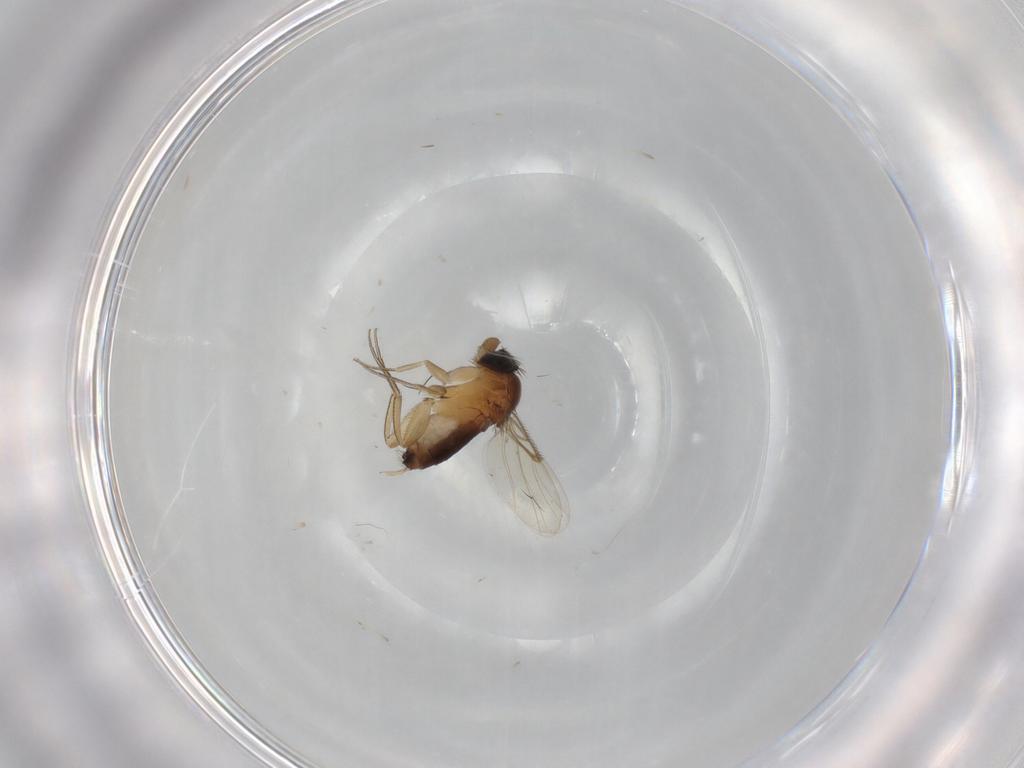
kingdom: Animalia
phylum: Arthropoda
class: Insecta
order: Diptera
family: Phoridae
